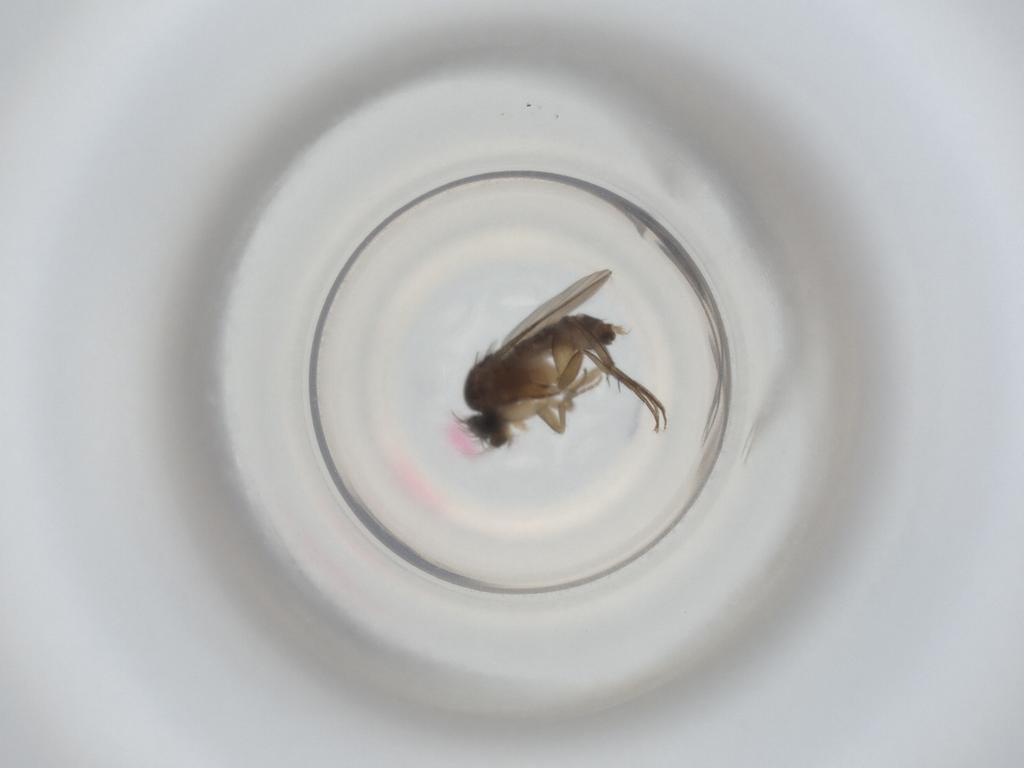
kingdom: Animalia
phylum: Arthropoda
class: Insecta
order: Diptera
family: Phoridae
